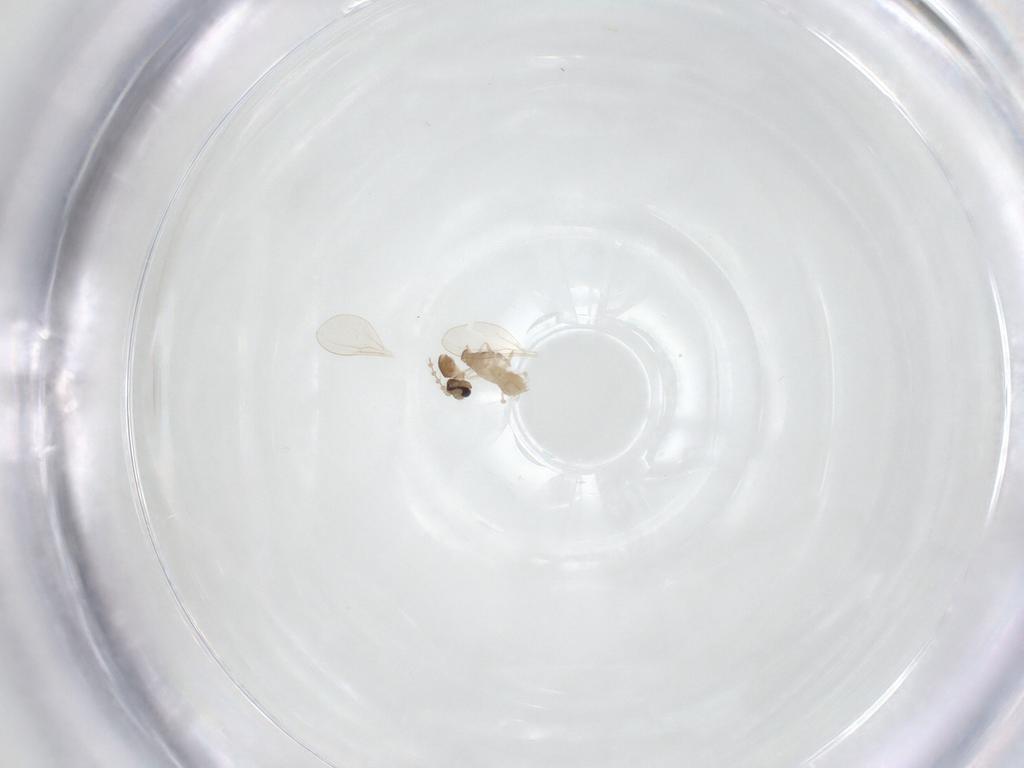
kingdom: Animalia
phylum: Arthropoda
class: Insecta
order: Diptera
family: Cecidomyiidae
